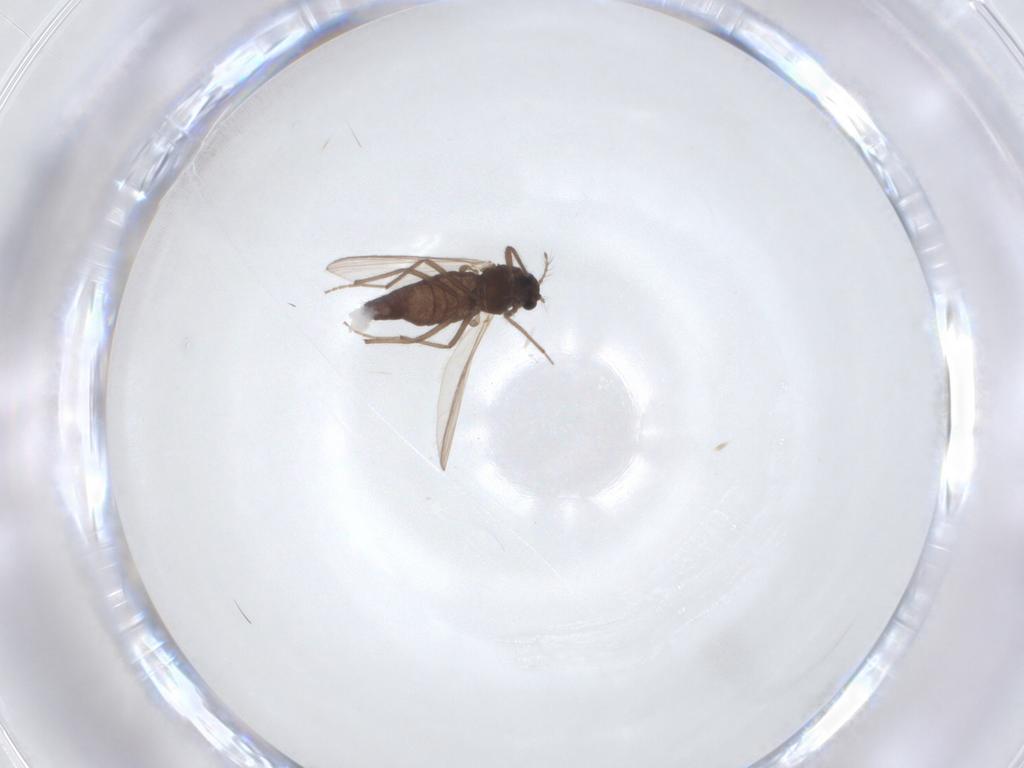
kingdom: Animalia
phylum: Arthropoda
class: Insecta
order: Diptera
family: Chironomidae
